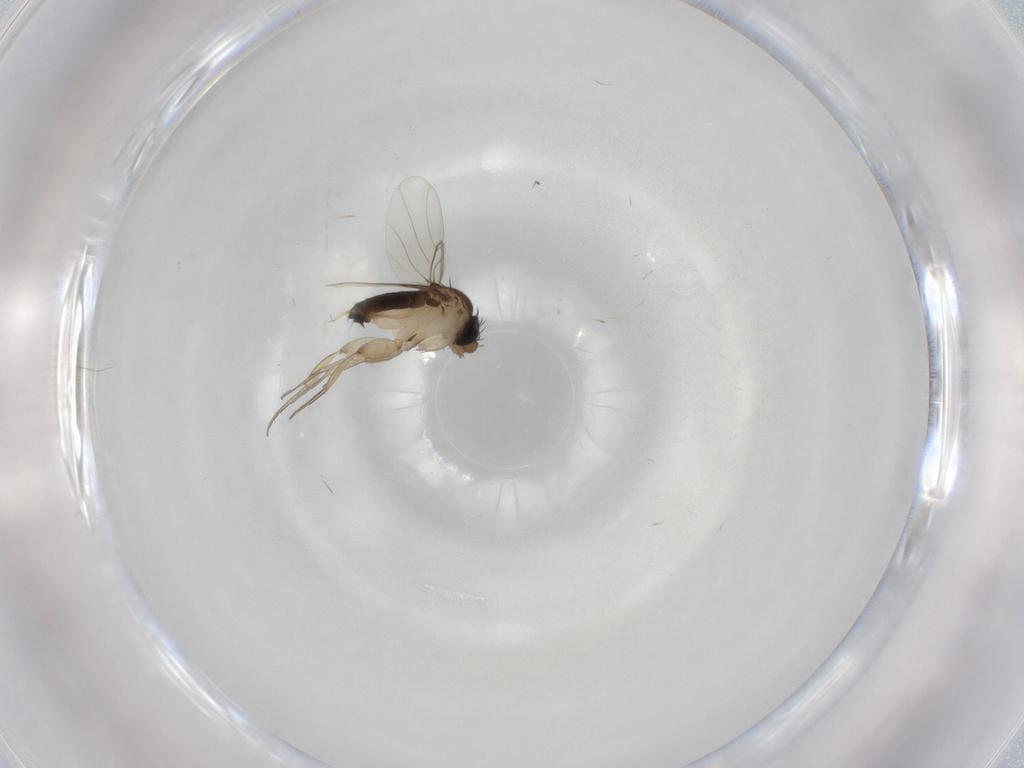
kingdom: Animalia
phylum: Arthropoda
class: Insecta
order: Diptera
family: Phoridae
